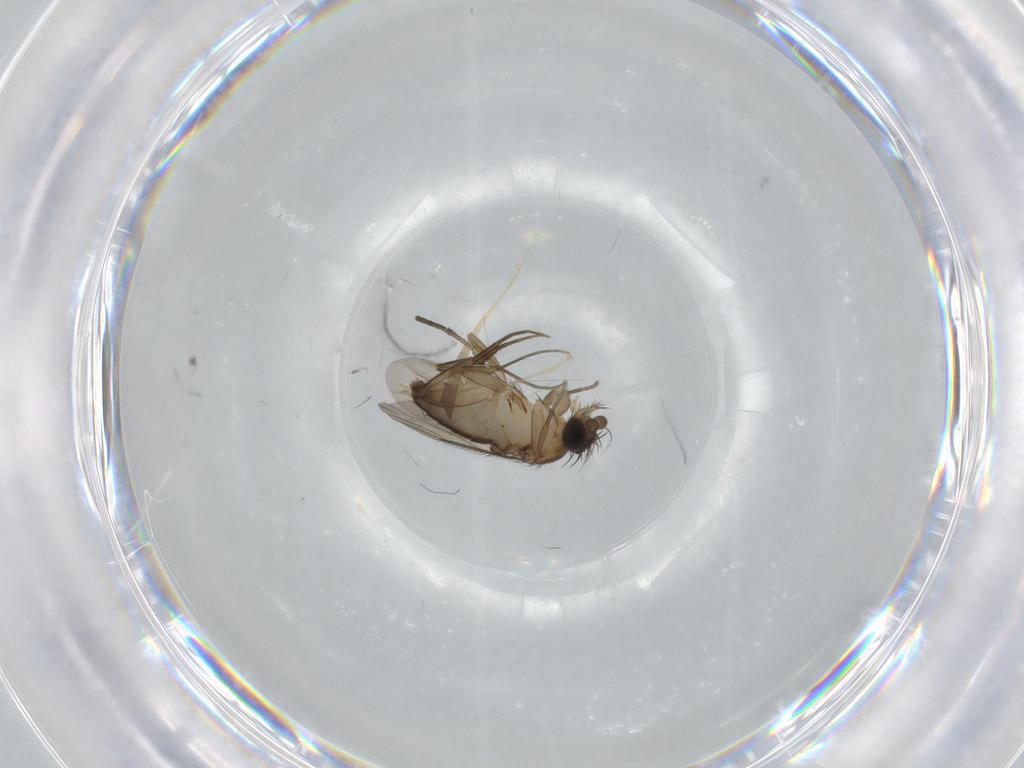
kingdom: Animalia
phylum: Arthropoda
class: Insecta
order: Diptera
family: Phoridae
